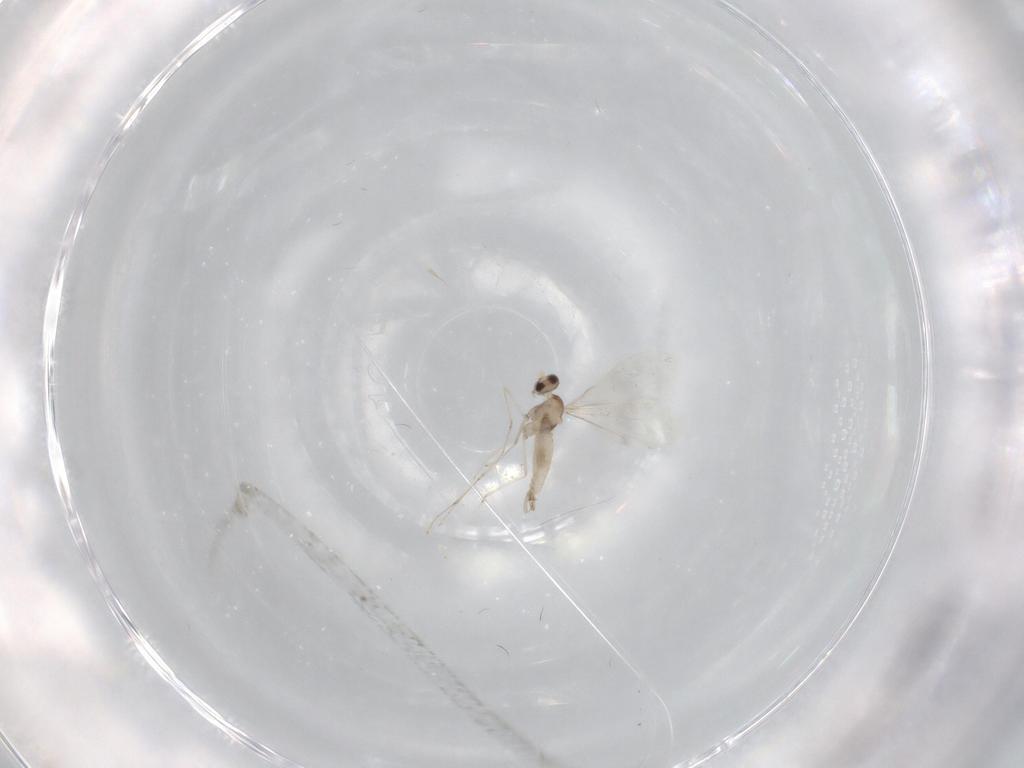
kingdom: Animalia
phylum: Arthropoda
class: Insecta
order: Diptera
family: Cecidomyiidae
